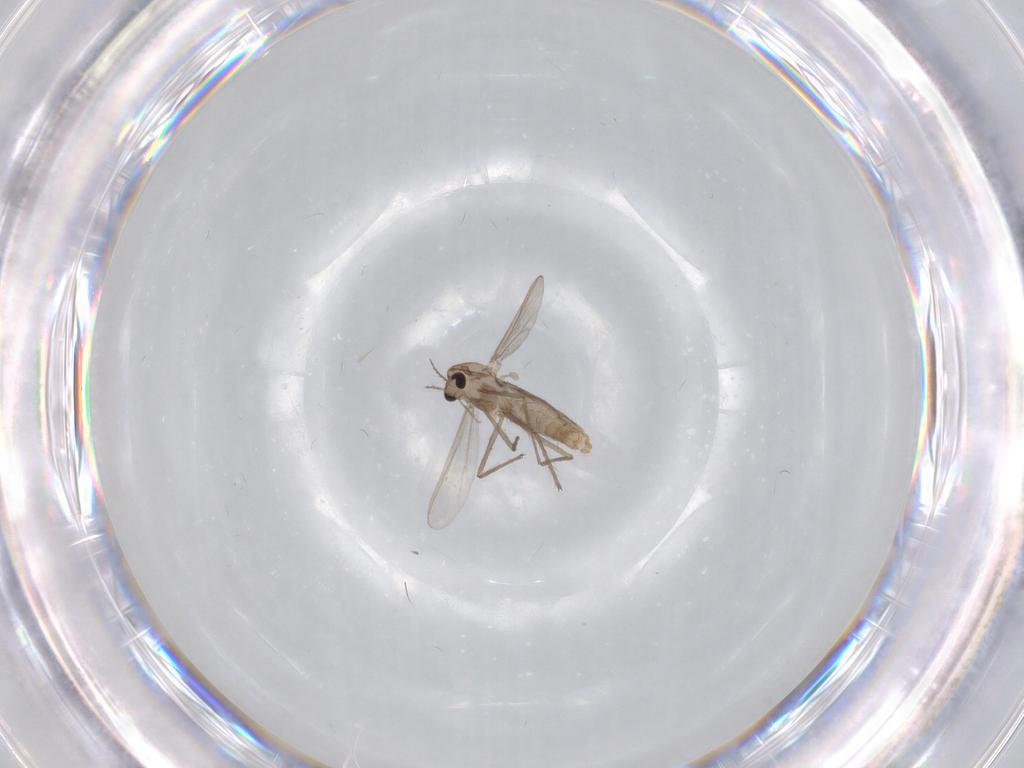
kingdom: Animalia
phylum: Arthropoda
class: Insecta
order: Diptera
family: Chironomidae
